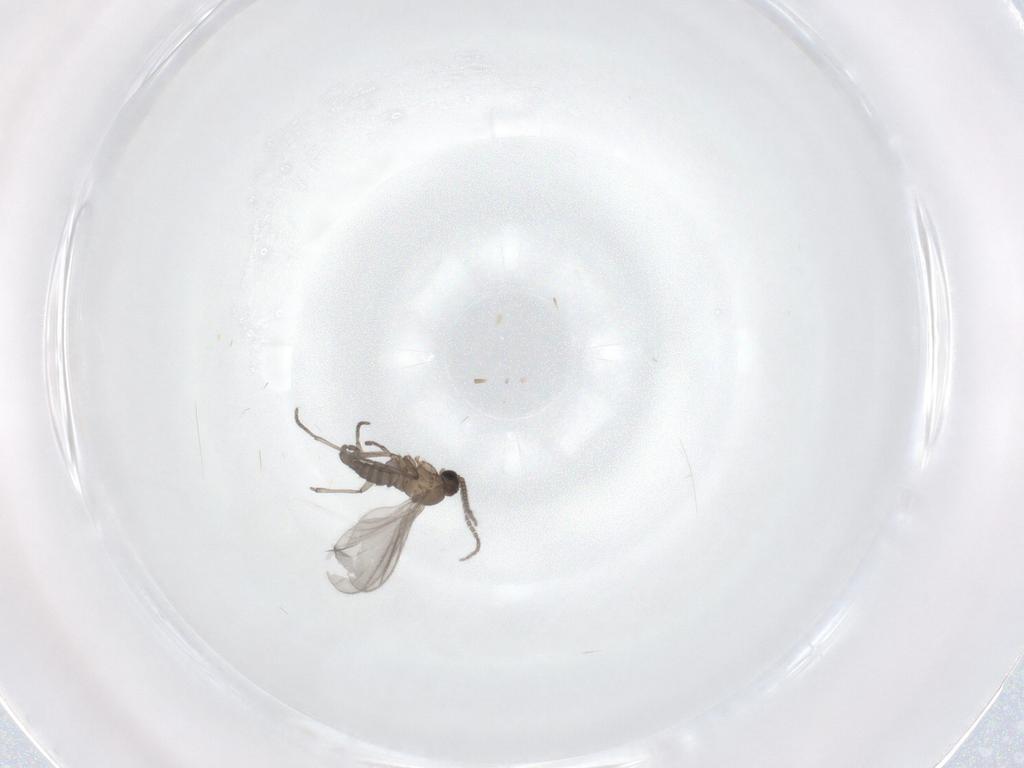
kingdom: Animalia
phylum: Arthropoda
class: Insecta
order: Diptera
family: Sciaridae
